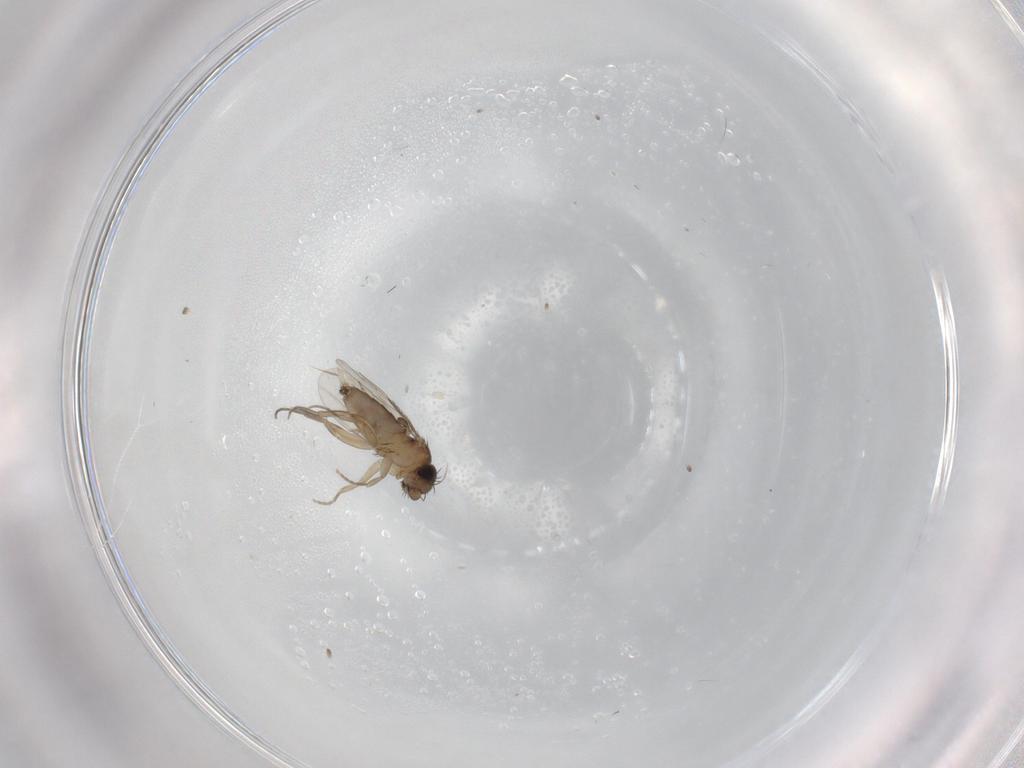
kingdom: Animalia
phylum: Arthropoda
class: Insecta
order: Diptera
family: Phoridae
